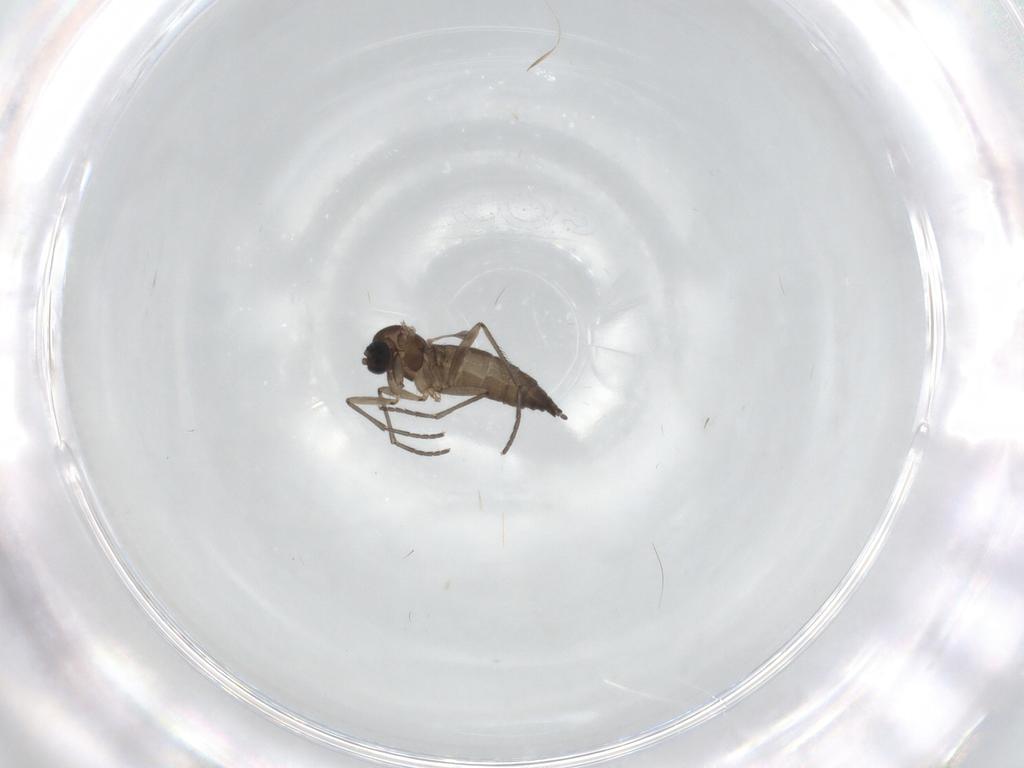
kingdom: Animalia
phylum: Arthropoda
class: Insecta
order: Diptera
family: Sciaridae
